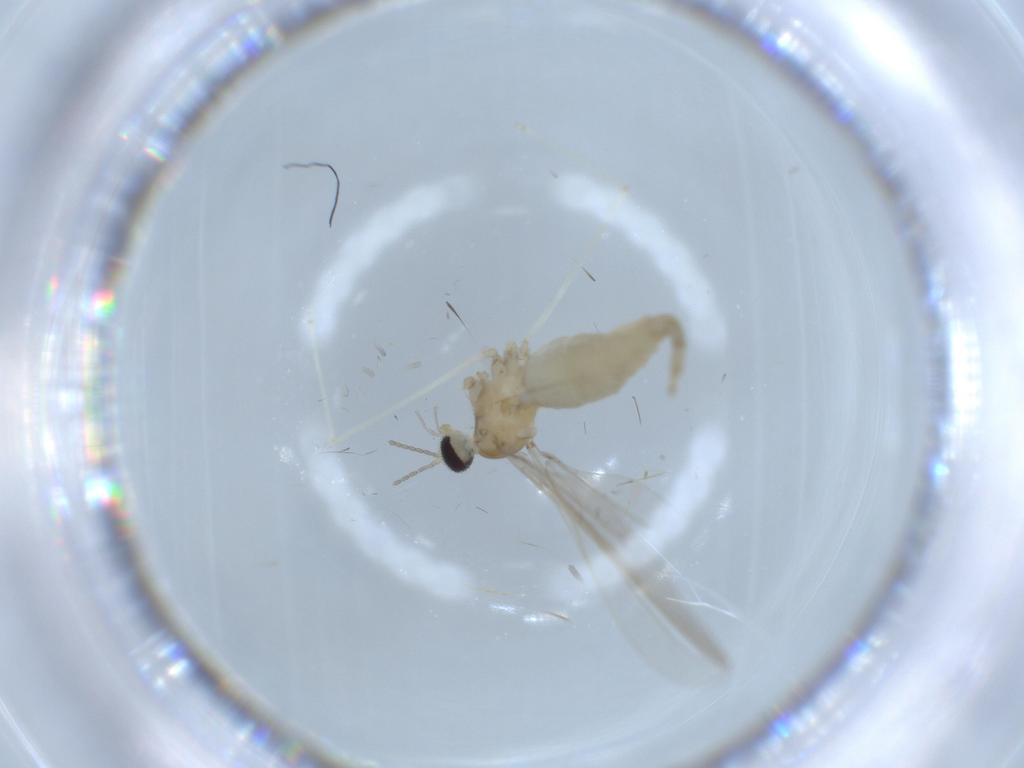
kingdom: Animalia
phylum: Arthropoda
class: Insecta
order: Diptera
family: Cecidomyiidae
